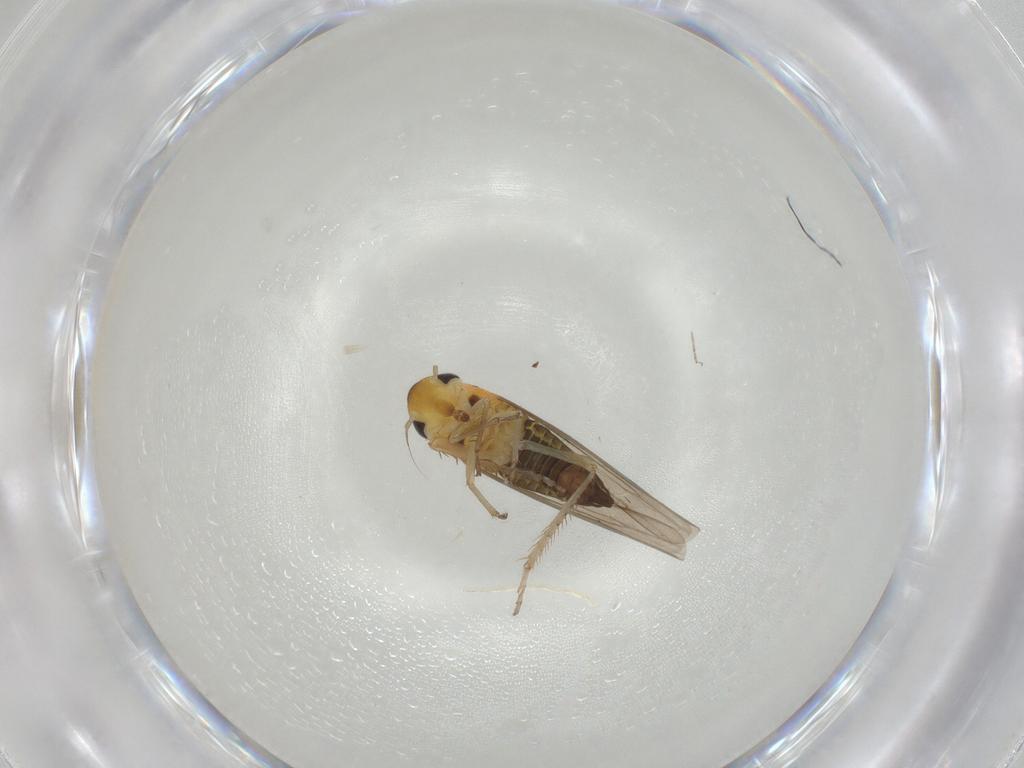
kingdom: Animalia
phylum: Arthropoda
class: Insecta
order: Hemiptera
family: Cicadellidae
